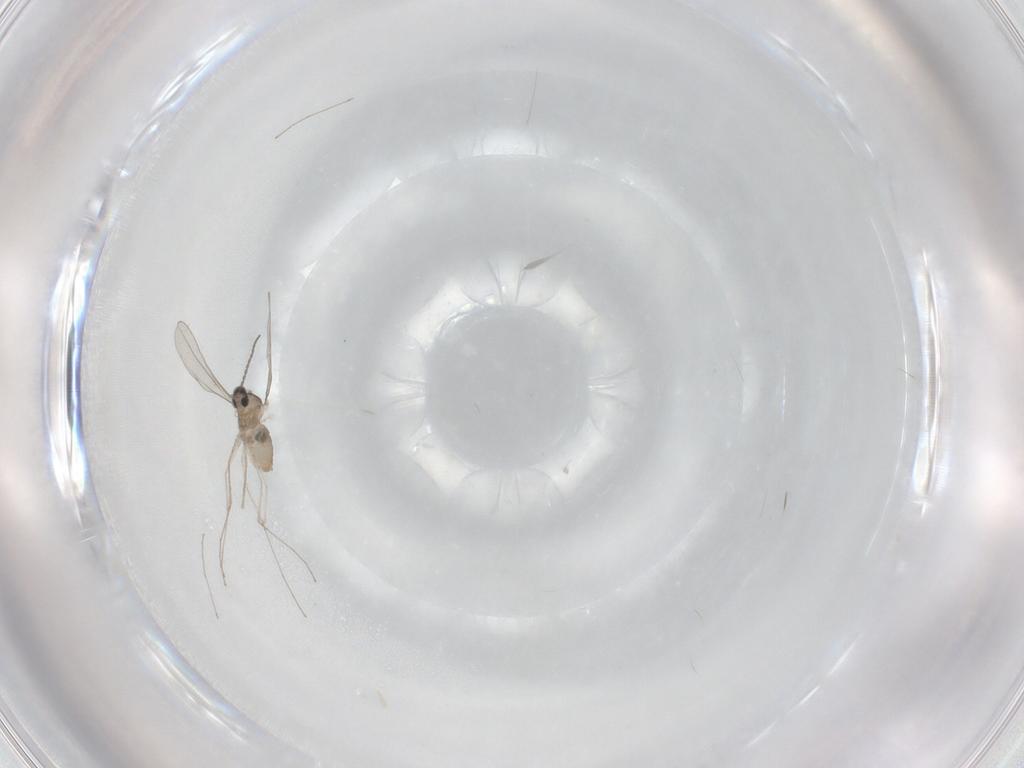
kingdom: Animalia
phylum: Arthropoda
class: Insecta
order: Diptera
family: Cecidomyiidae
